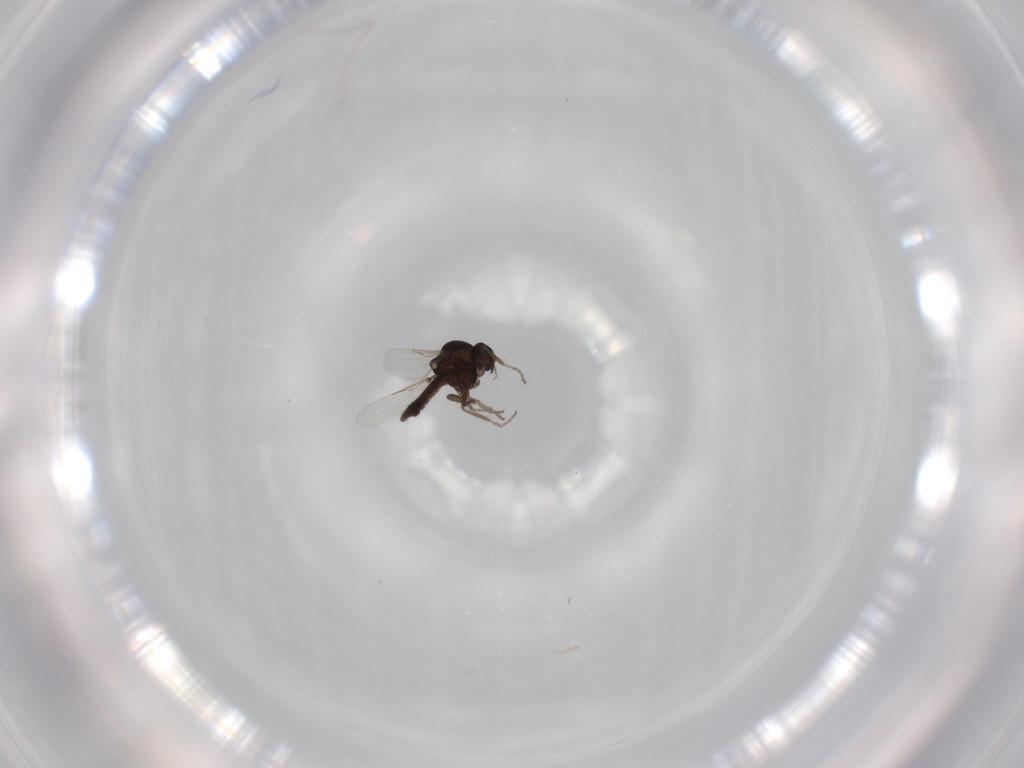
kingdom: Animalia
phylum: Arthropoda
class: Insecta
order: Diptera
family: Ceratopogonidae
